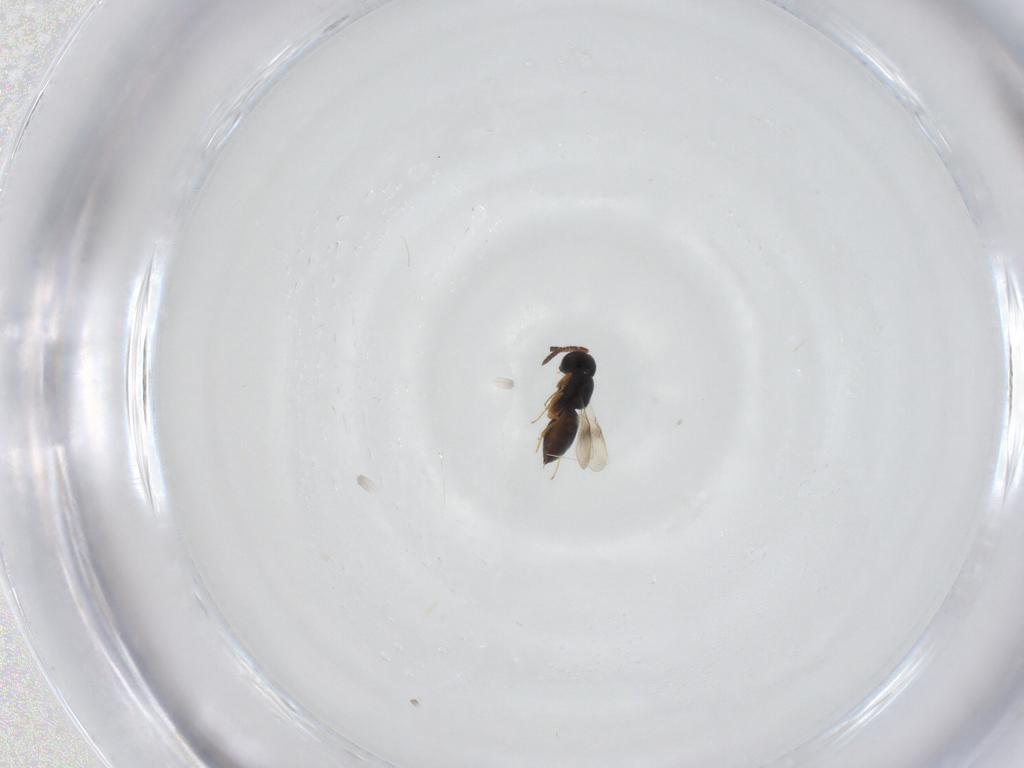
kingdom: Animalia
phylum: Arthropoda
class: Insecta
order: Hymenoptera
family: Scelionidae
